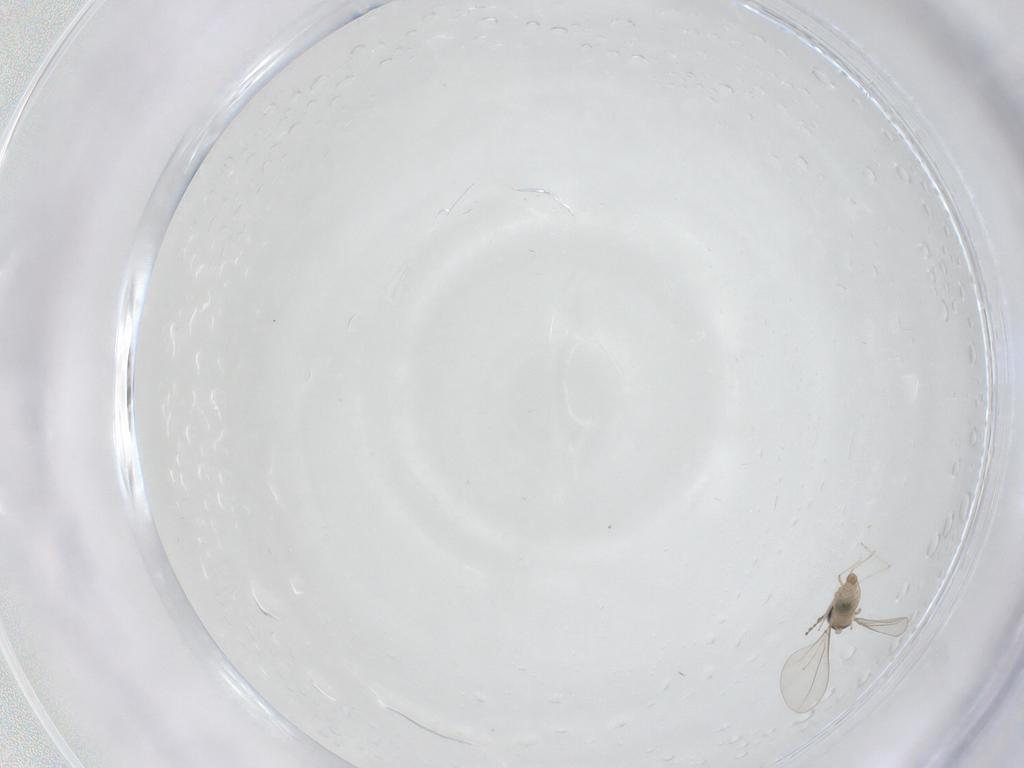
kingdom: Animalia
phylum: Arthropoda
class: Insecta
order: Diptera
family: Cecidomyiidae
